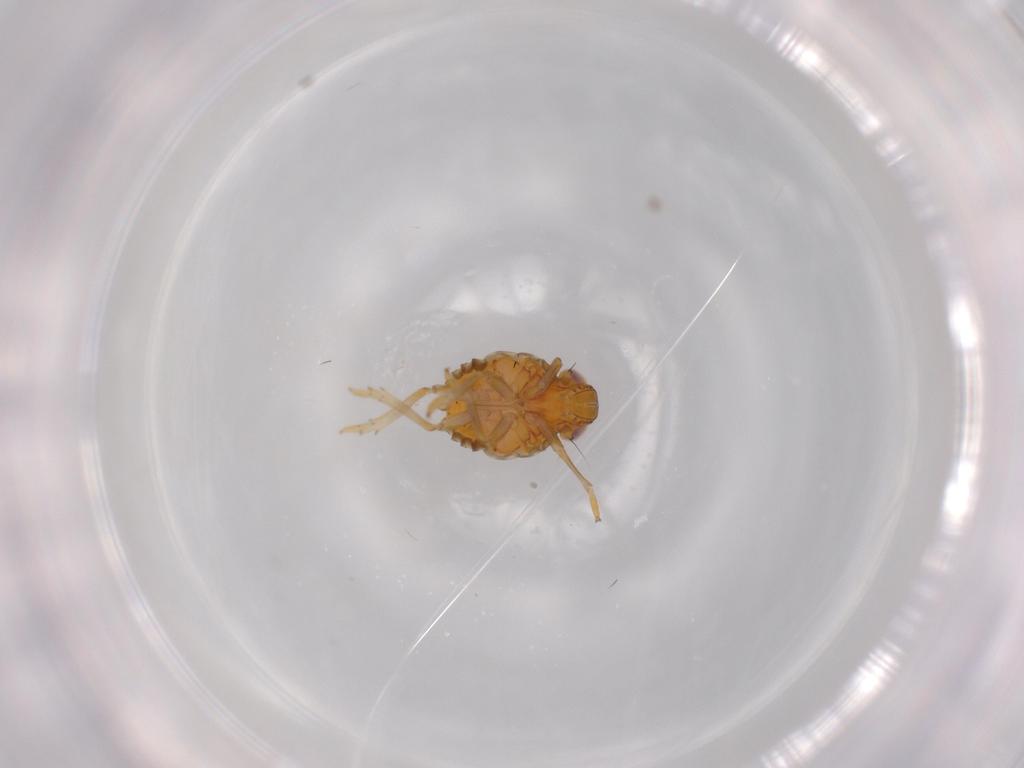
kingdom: Animalia
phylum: Arthropoda
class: Insecta
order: Hemiptera
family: Issidae
